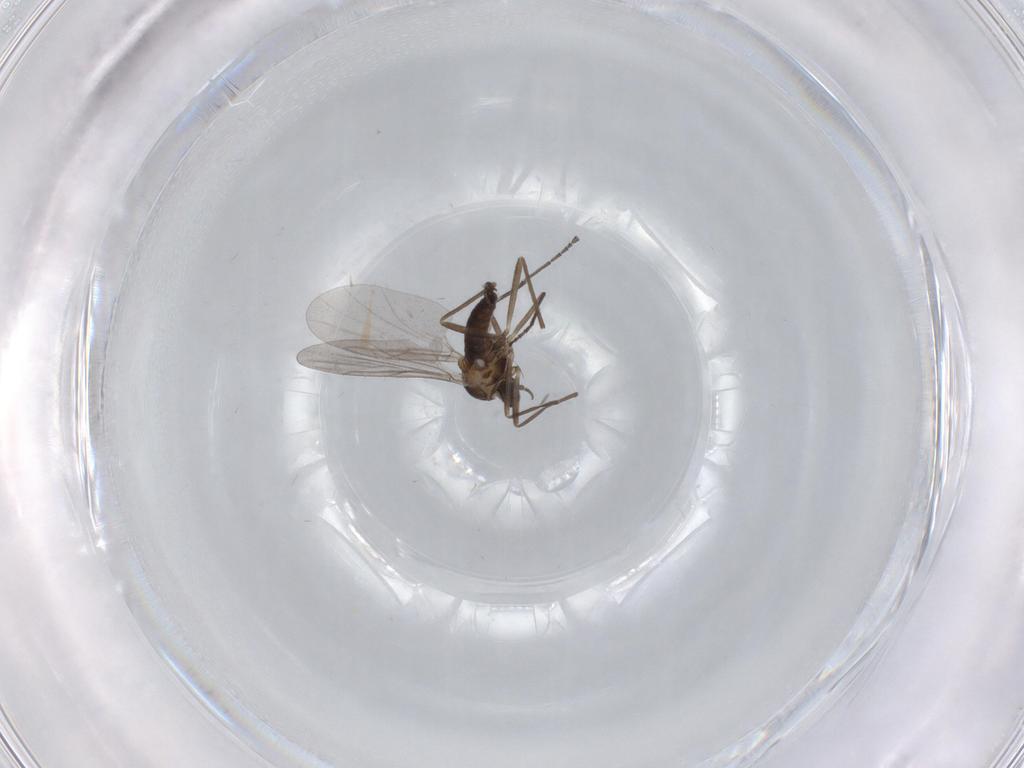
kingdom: Animalia
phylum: Arthropoda
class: Insecta
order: Diptera
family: Cecidomyiidae
